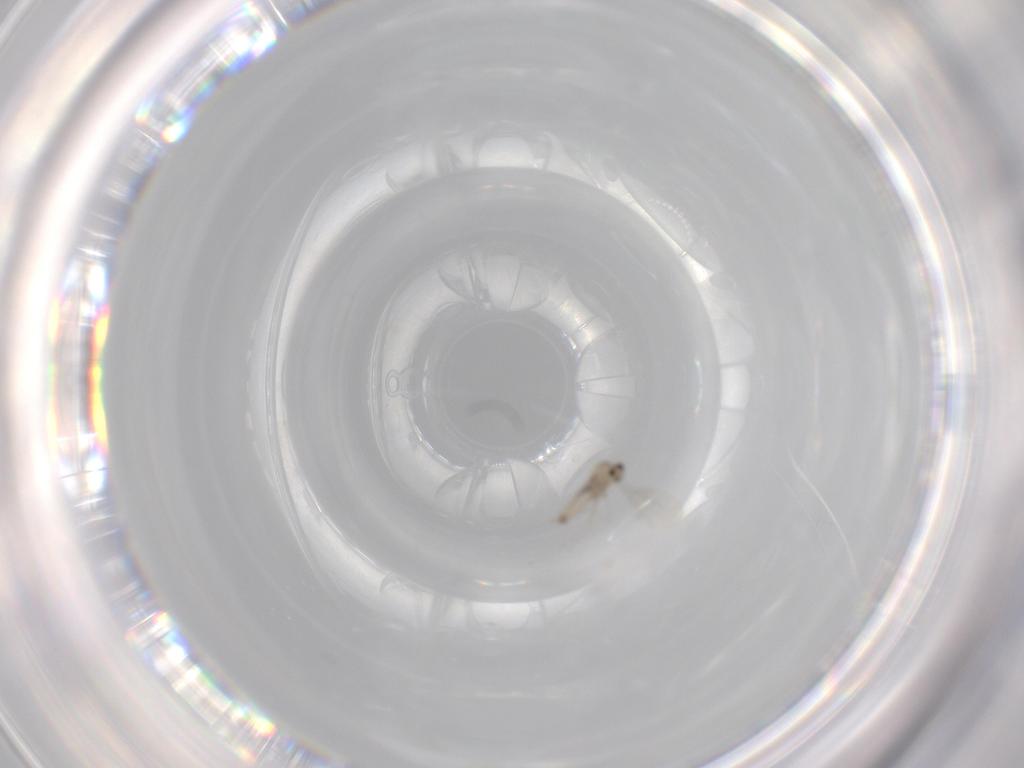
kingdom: Animalia
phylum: Arthropoda
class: Insecta
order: Diptera
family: Cecidomyiidae
